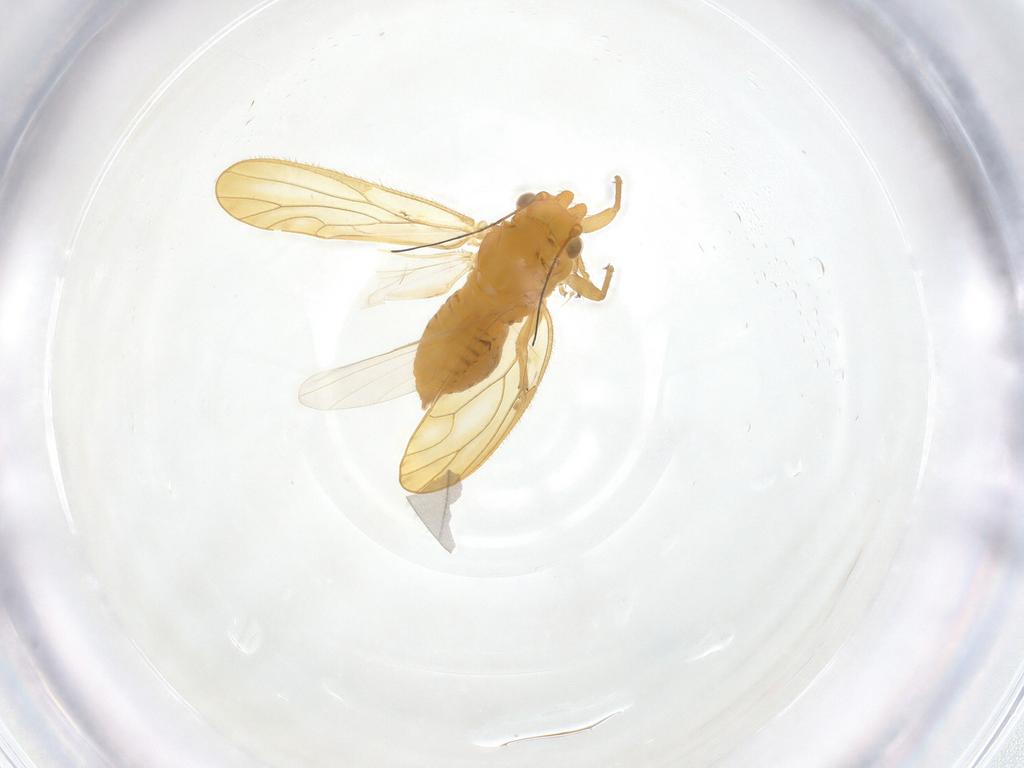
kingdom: Animalia
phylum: Arthropoda
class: Insecta
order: Hemiptera
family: Psyllidae
